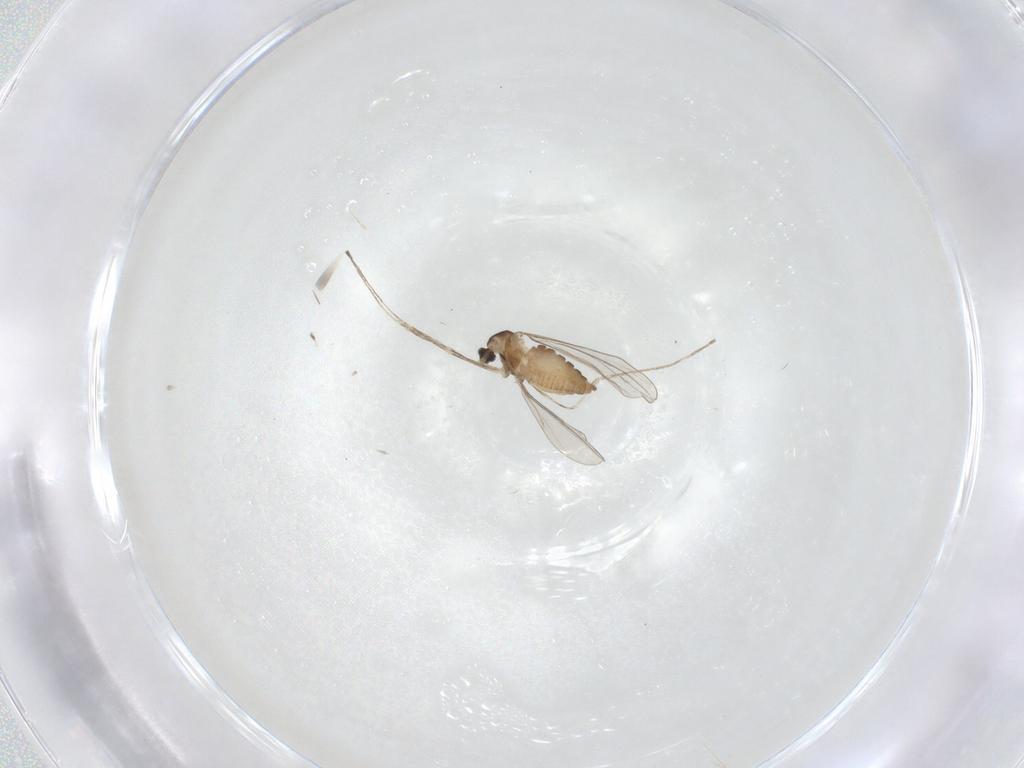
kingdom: Animalia
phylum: Arthropoda
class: Insecta
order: Diptera
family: Cecidomyiidae
